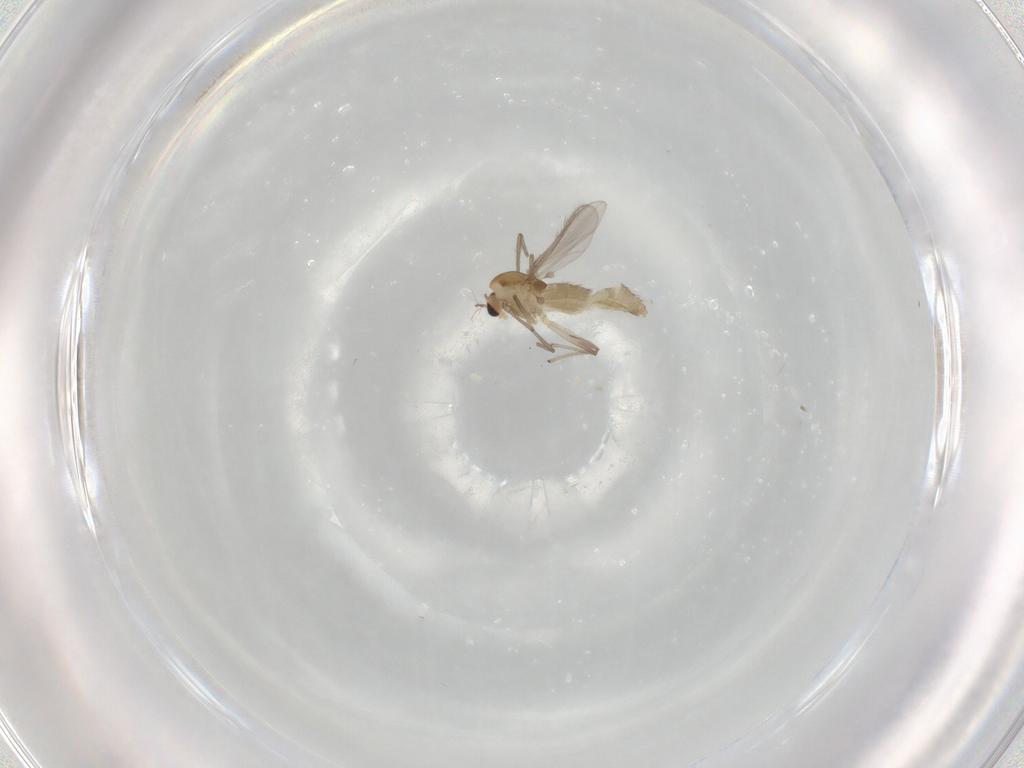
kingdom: Animalia
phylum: Arthropoda
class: Insecta
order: Diptera
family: Chironomidae
